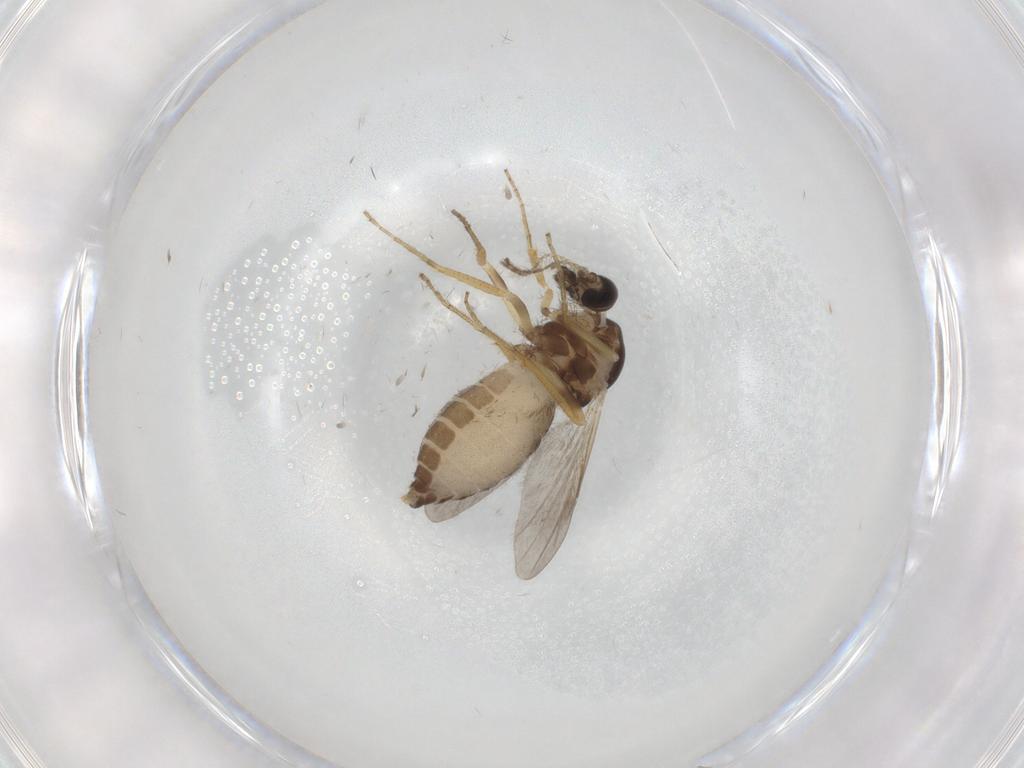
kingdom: Animalia
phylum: Arthropoda
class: Insecta
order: Diptera
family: Ceratopogonidae
